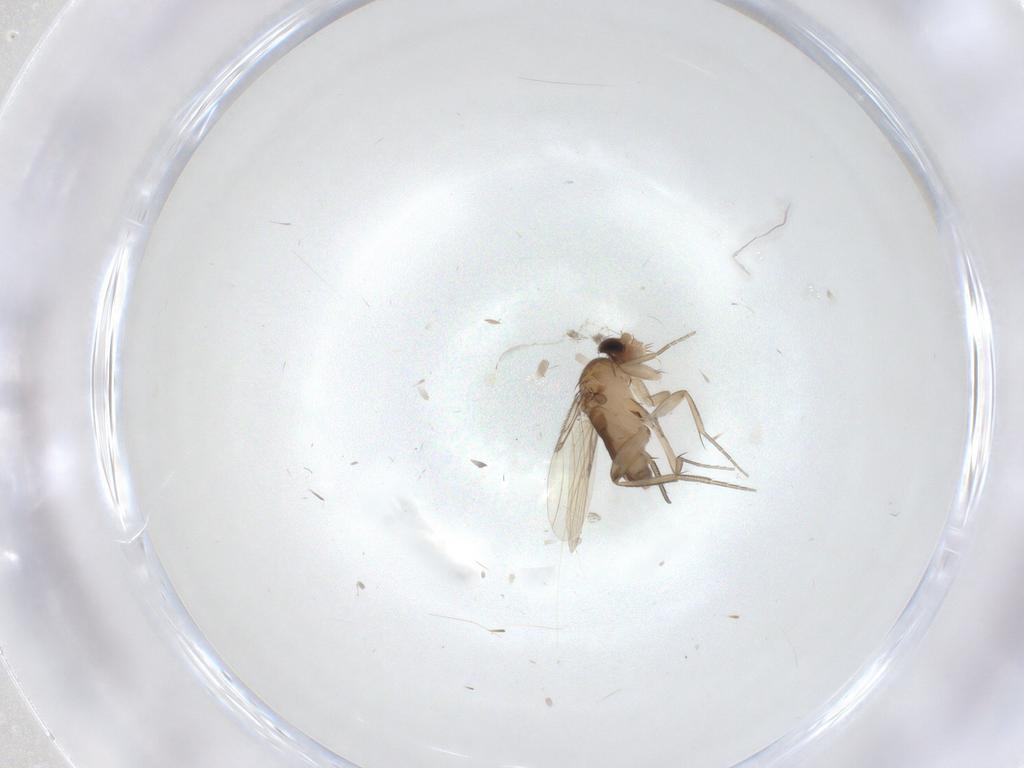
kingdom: Animalia
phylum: Arthropoda
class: Insecta
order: Diptera
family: Phoridae
